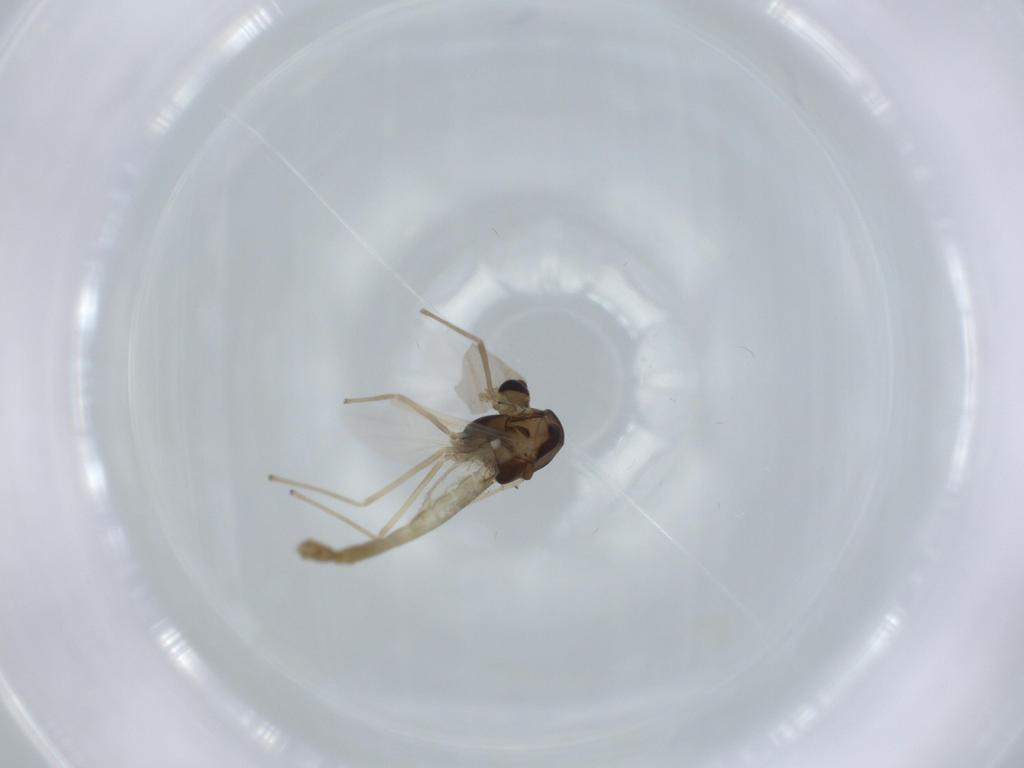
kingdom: Animalia
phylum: Arthropoda
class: Insecta
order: Diptera
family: Chironomidae
